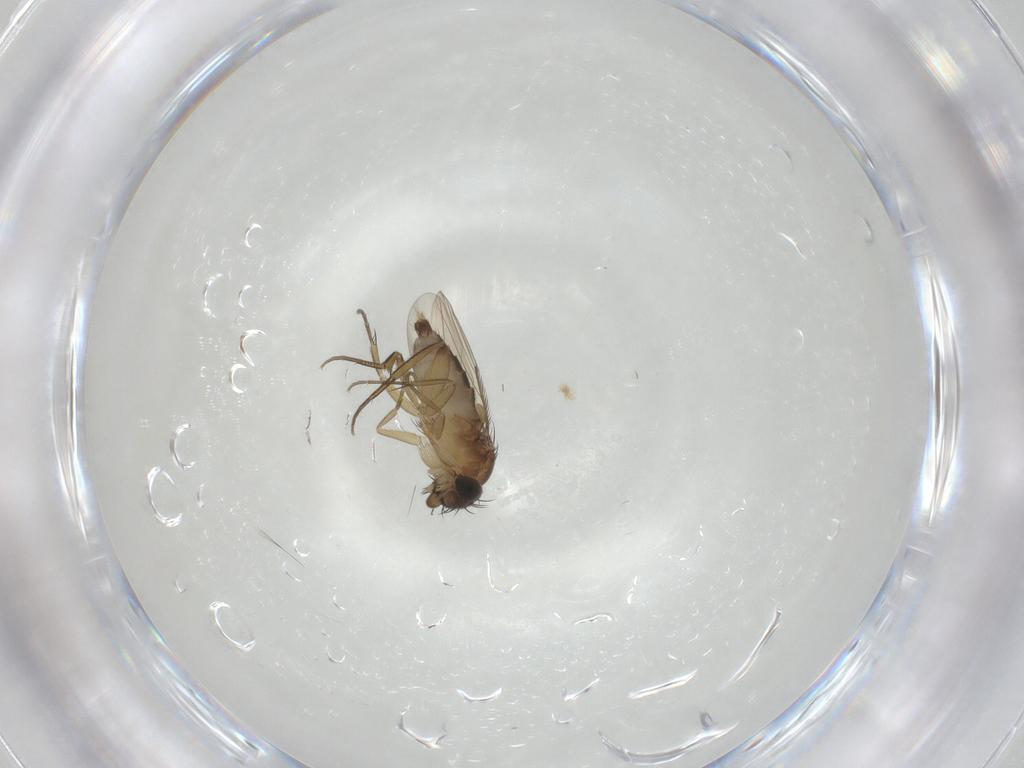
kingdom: Animalia
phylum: Arthropoda
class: Insecta
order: Diptera
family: Phoridae
